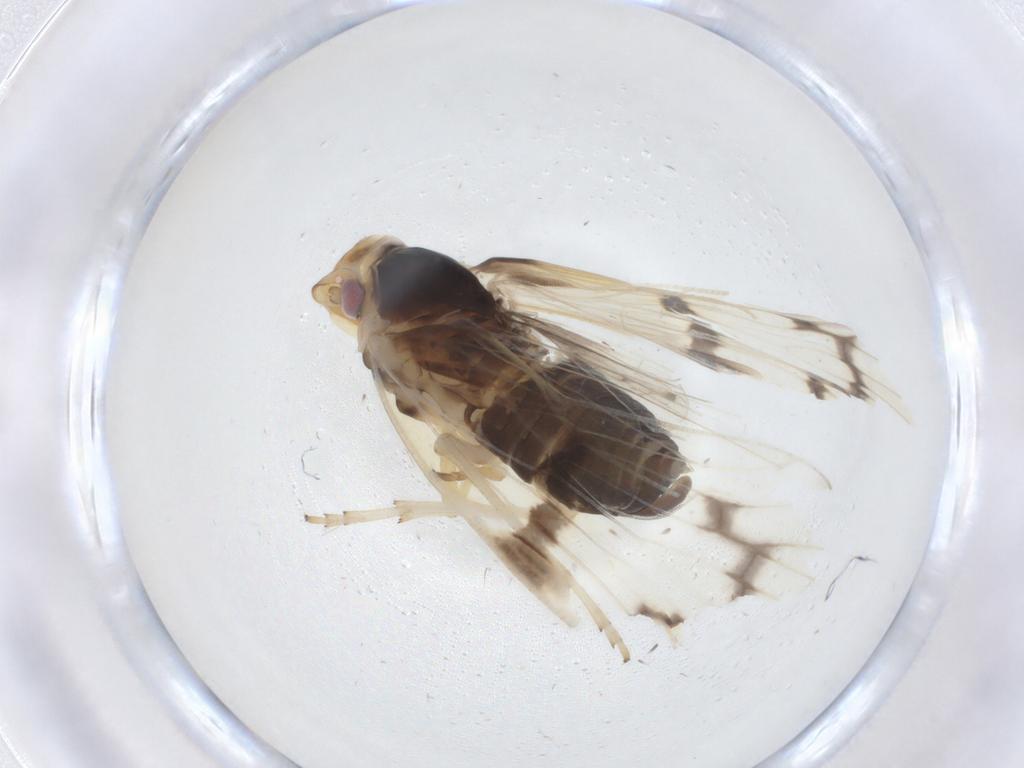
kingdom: Animalia
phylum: Arthropoda
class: Insecta
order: Hemiptera
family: Cixiidae
